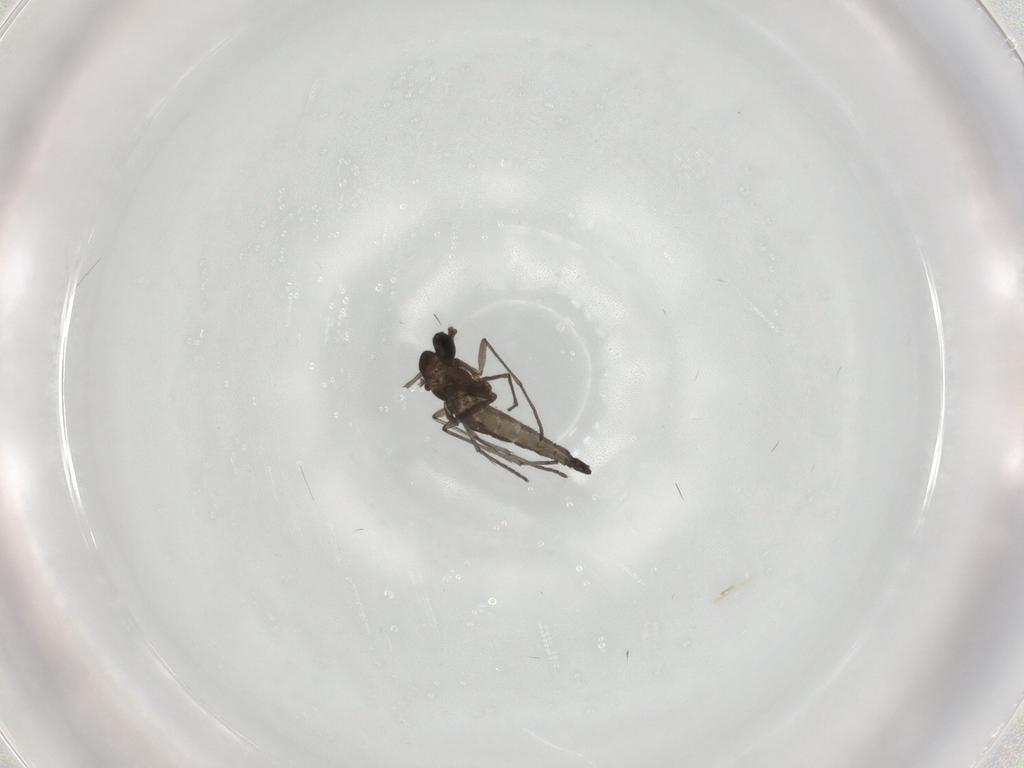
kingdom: Animalia
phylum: Arthropoda
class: Insecta
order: Diptera
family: Sciaridae
